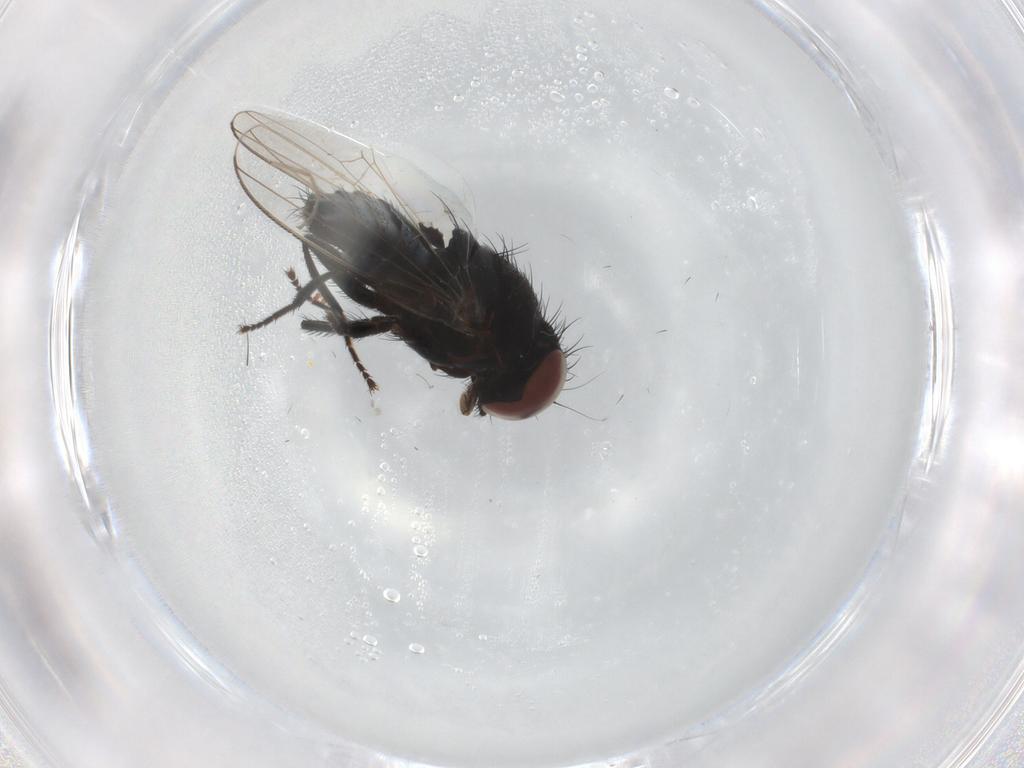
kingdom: Animalia
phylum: Arthropoda
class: Insecta
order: Diptera
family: Milichiidae
